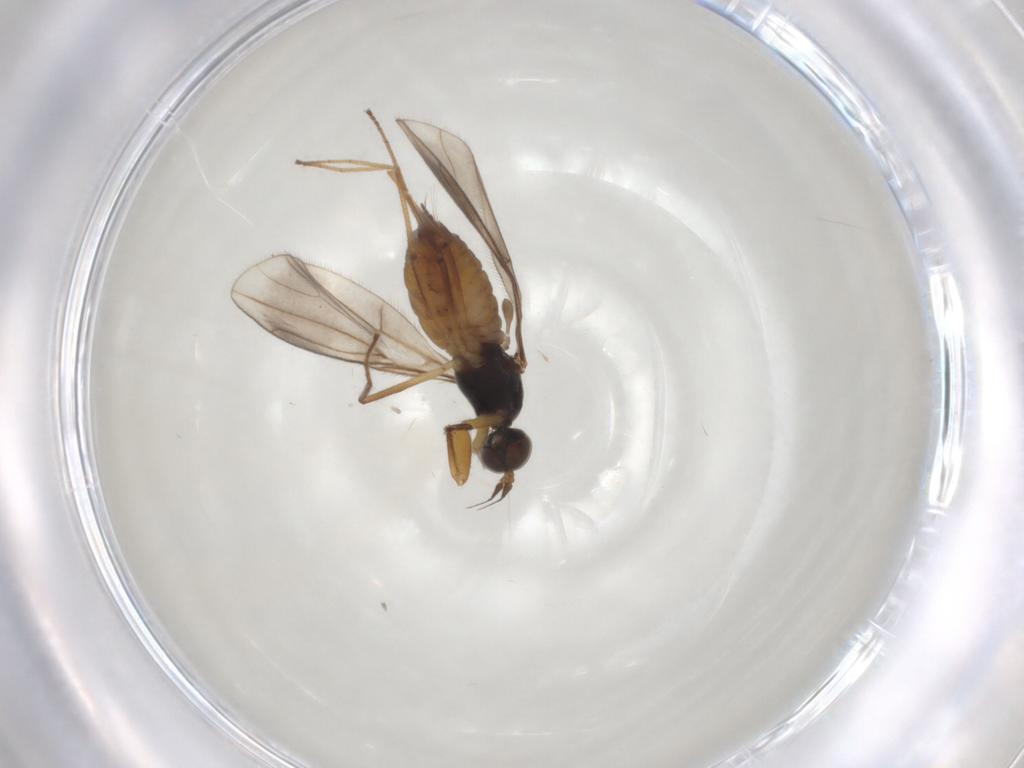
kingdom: Animalia
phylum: Arthropoda
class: Insecta
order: Diptera
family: Empididae
